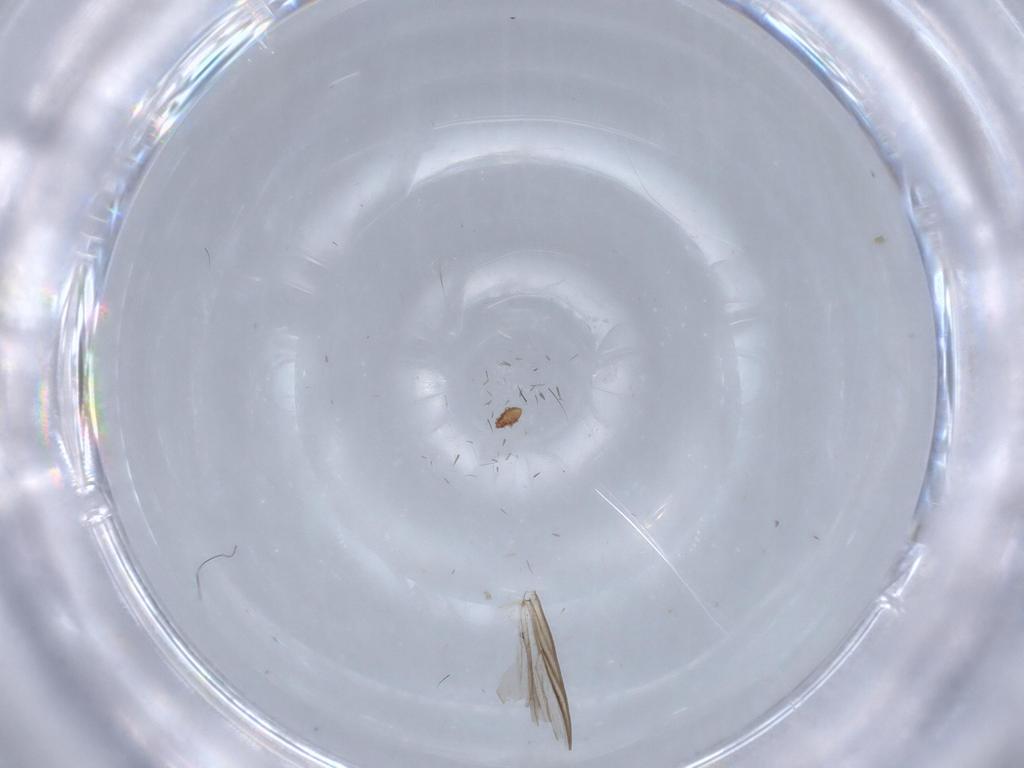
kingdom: Animalia
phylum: Arthropoda
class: Arachnida
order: Sarcoptiformes
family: Oppiidae
